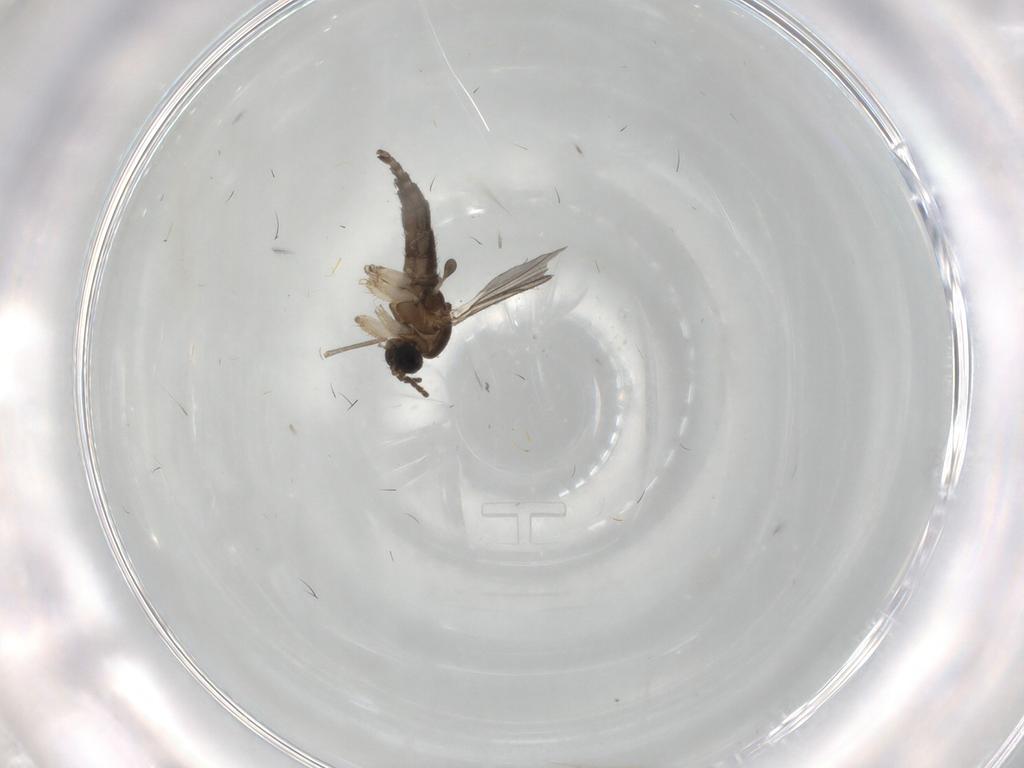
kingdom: Animalia
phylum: Arthropoda
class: Insecta
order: Diptera
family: Sciaridae
